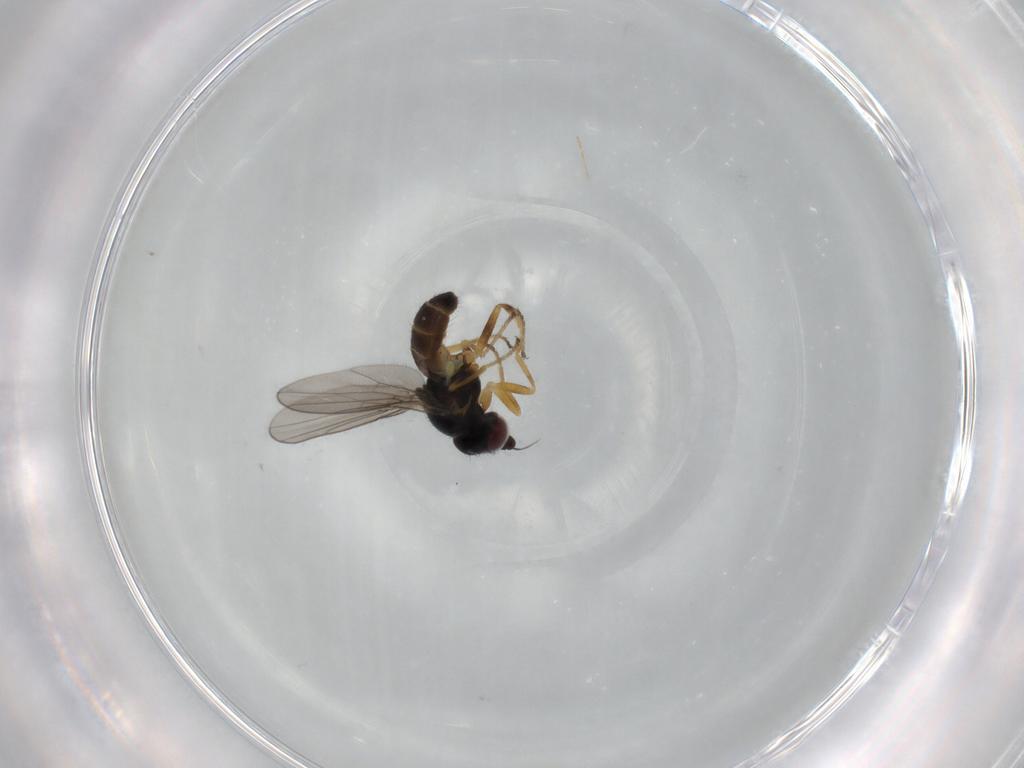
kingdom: Animalia
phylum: Arthropoda
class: Insecta
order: Diptera
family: Chloropidae
